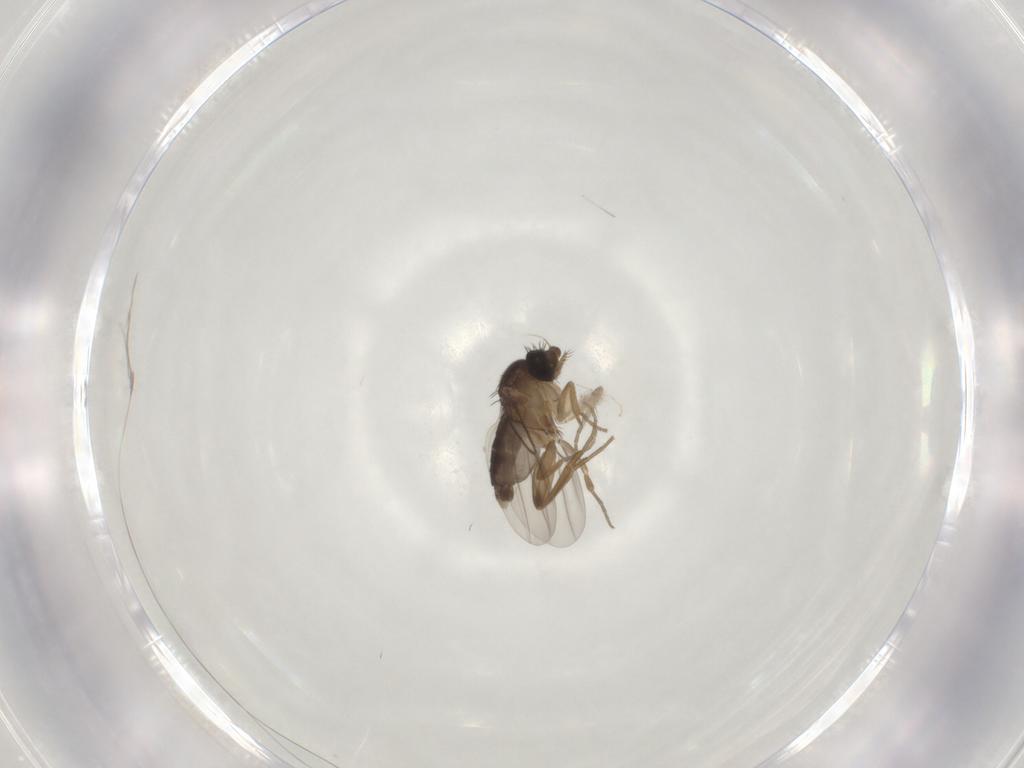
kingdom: Animalia
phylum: Arthropoda
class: Insecta
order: Diptera
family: Phoridae
